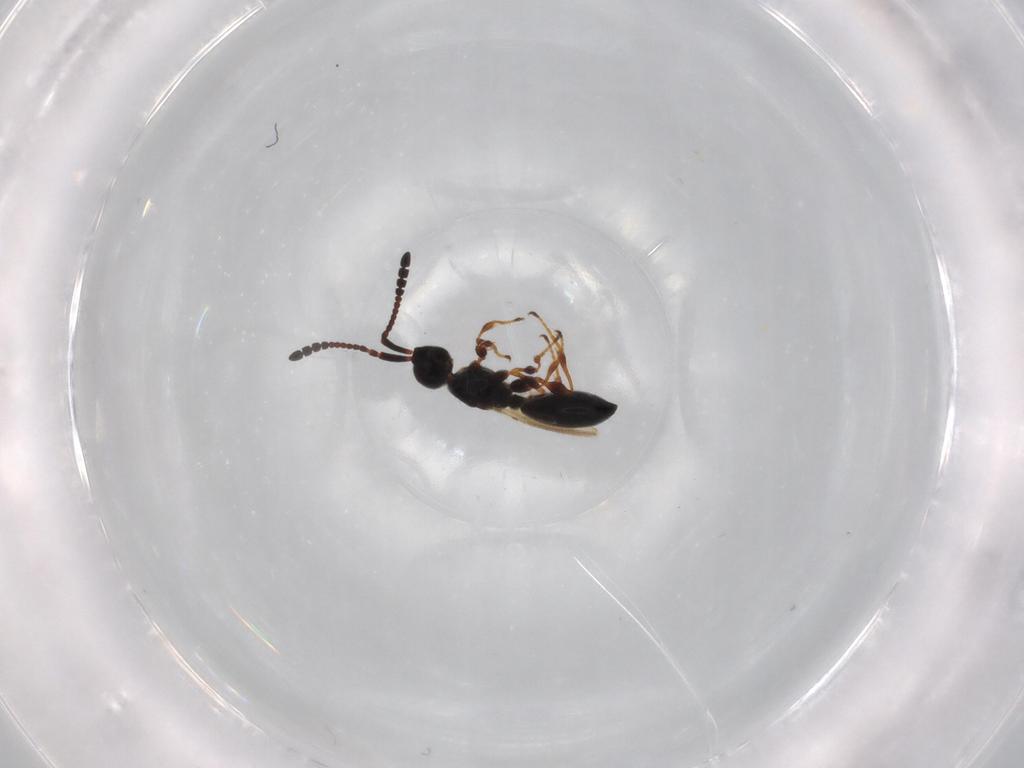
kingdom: Animalia
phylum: Arthropoda
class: Insecta
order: Hymenoptera
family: Diapriidae
